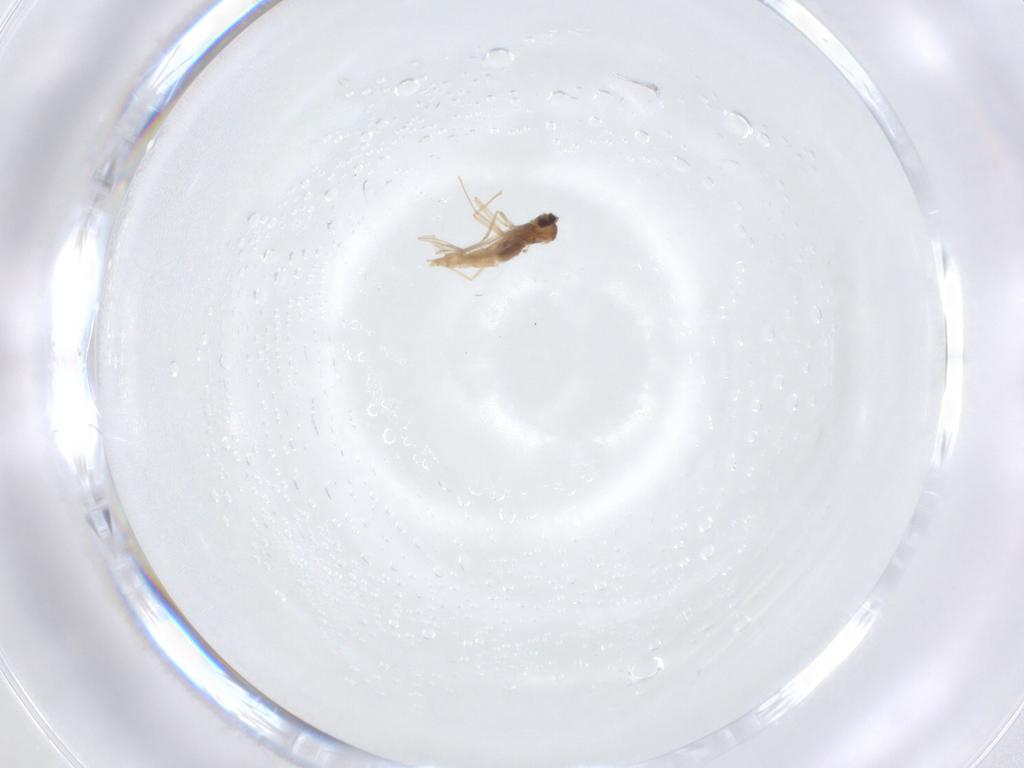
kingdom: Animalia
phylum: Arthropoda
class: Insecta
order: Diptera
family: Cecidomyiidae
